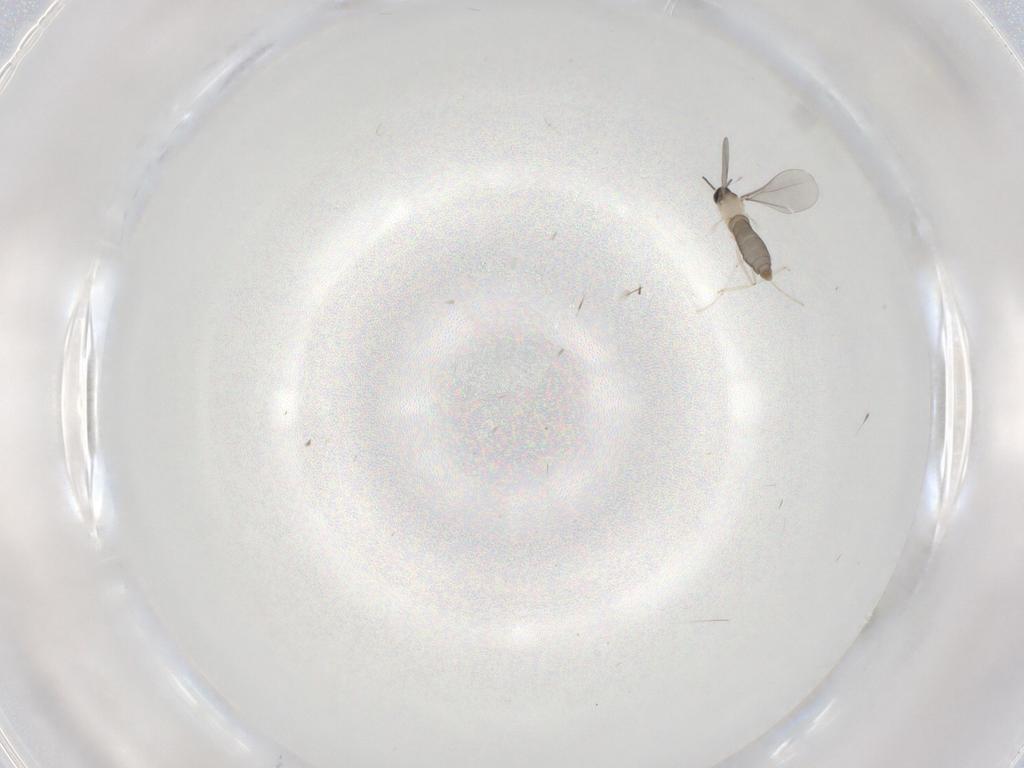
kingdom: Animalia
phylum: Arthropoda
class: Insecta
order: Diptera
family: Cecidomyiidae
